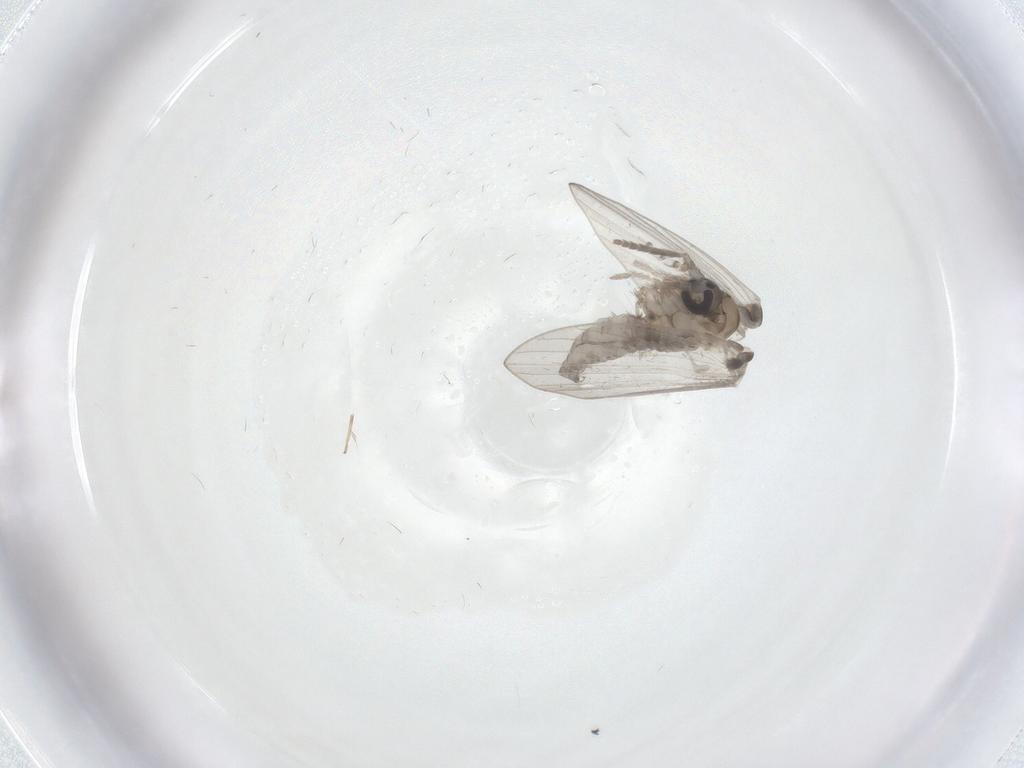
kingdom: Animalia
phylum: Arthropoda
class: Insecta
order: Diptera
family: Psychodidae
